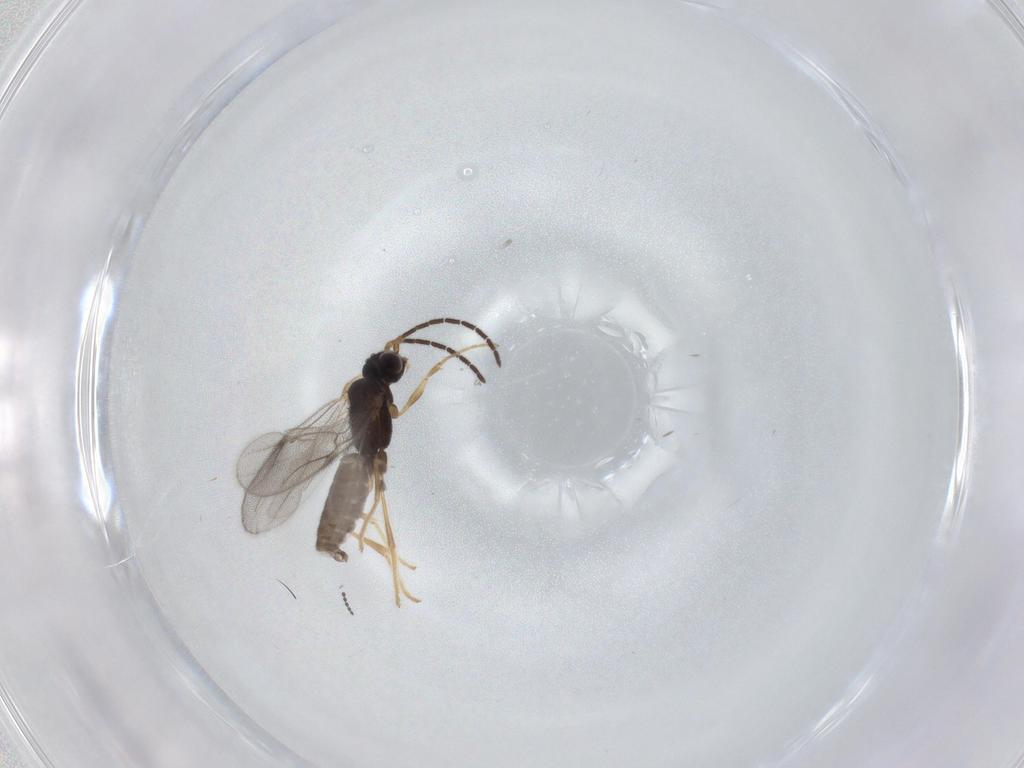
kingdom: Animalia
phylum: Arthropoda
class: Insecta
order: Hymenoptera
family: Dryinidae
